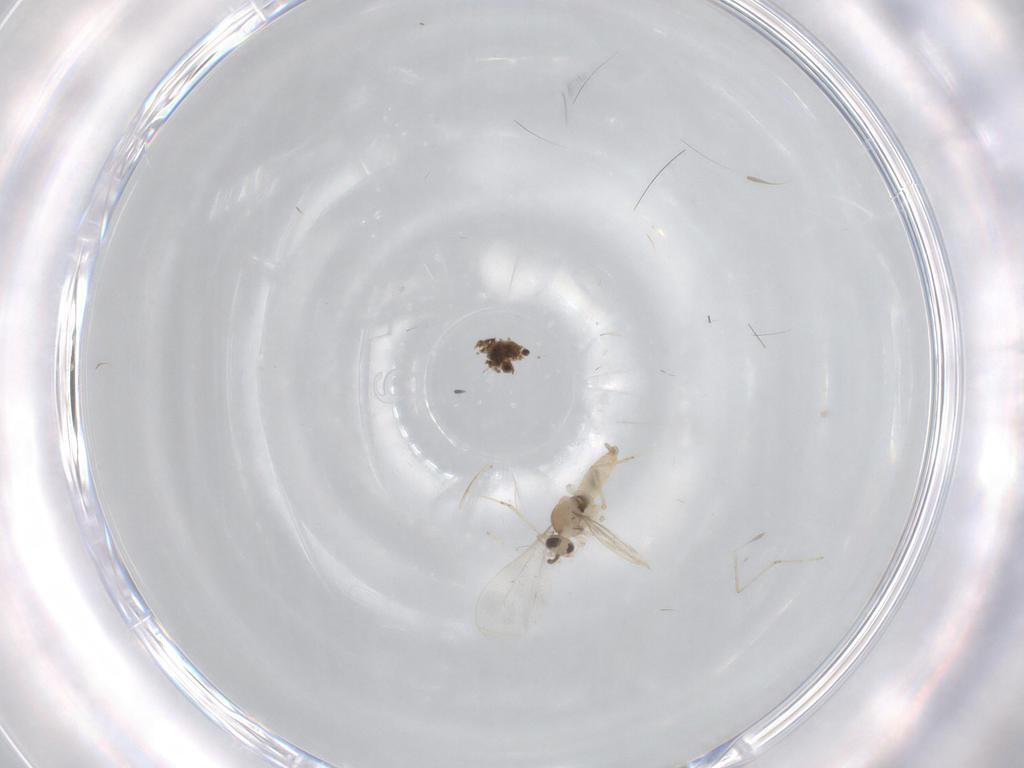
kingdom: Animalia
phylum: Arthropoda
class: Insecta
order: Diptera
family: Cecidomyiidae
